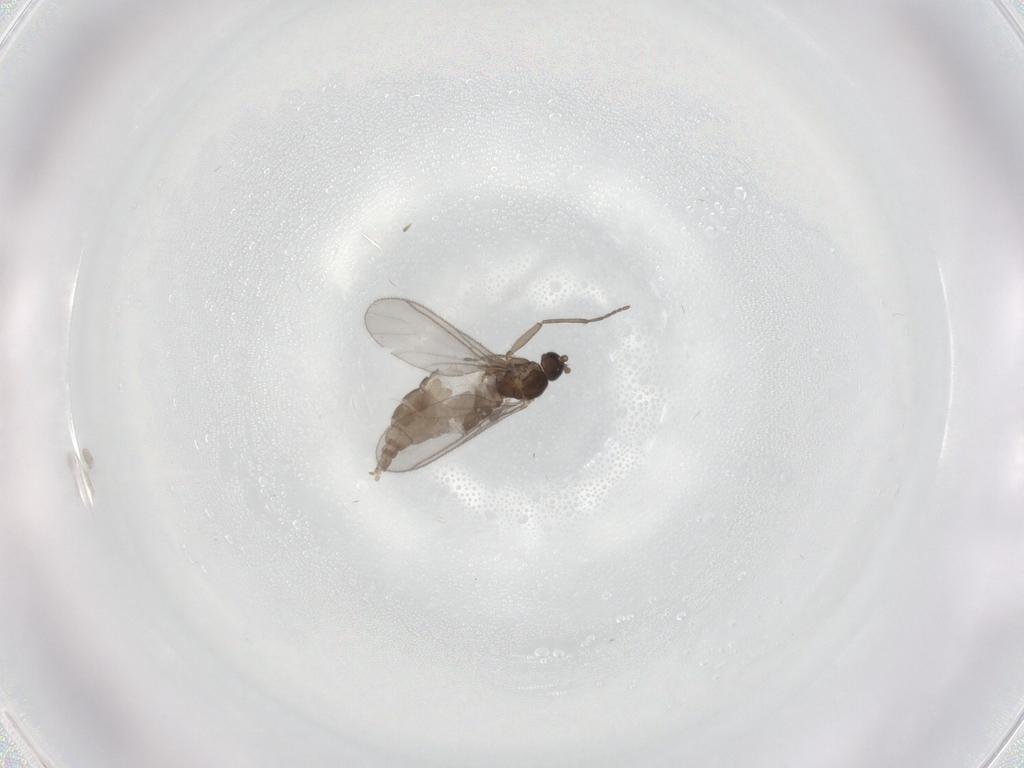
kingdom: Animalia
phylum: Arthropoda
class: Insecta
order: Diptera
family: Sciaridae
